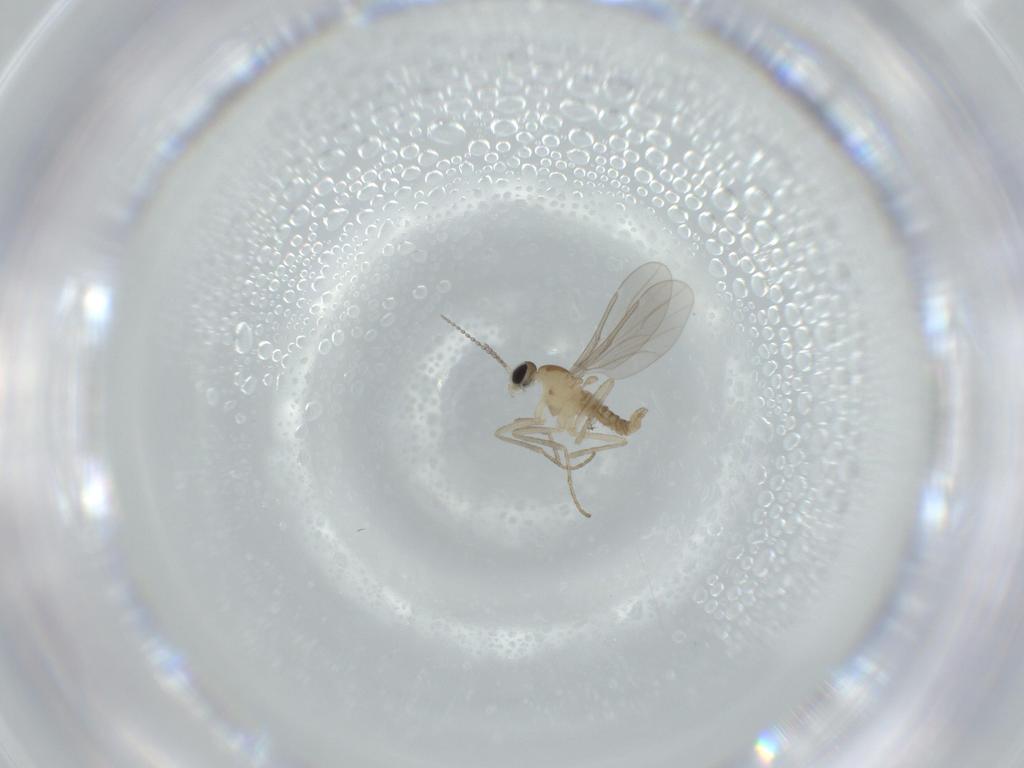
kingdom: Animalia
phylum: Arthropoda
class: Insecta
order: Diptera
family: Cecidomyiidae
